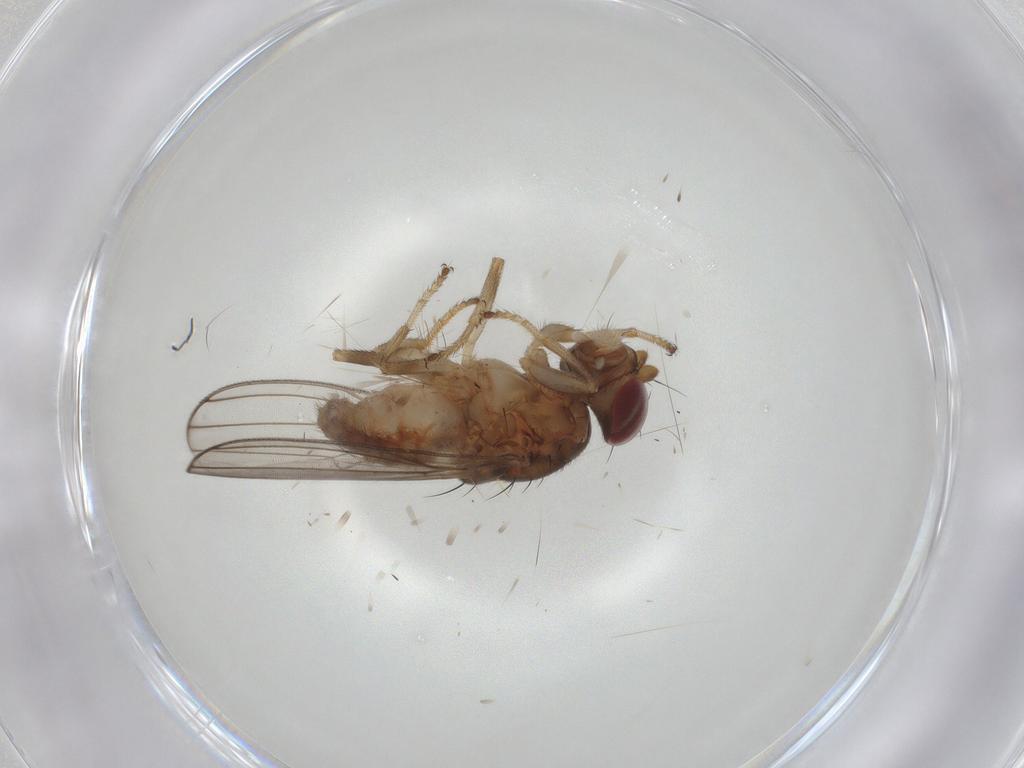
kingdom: Animalia
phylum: Arthropoda
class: Insecta
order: Diptera
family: Aulacigastridae
